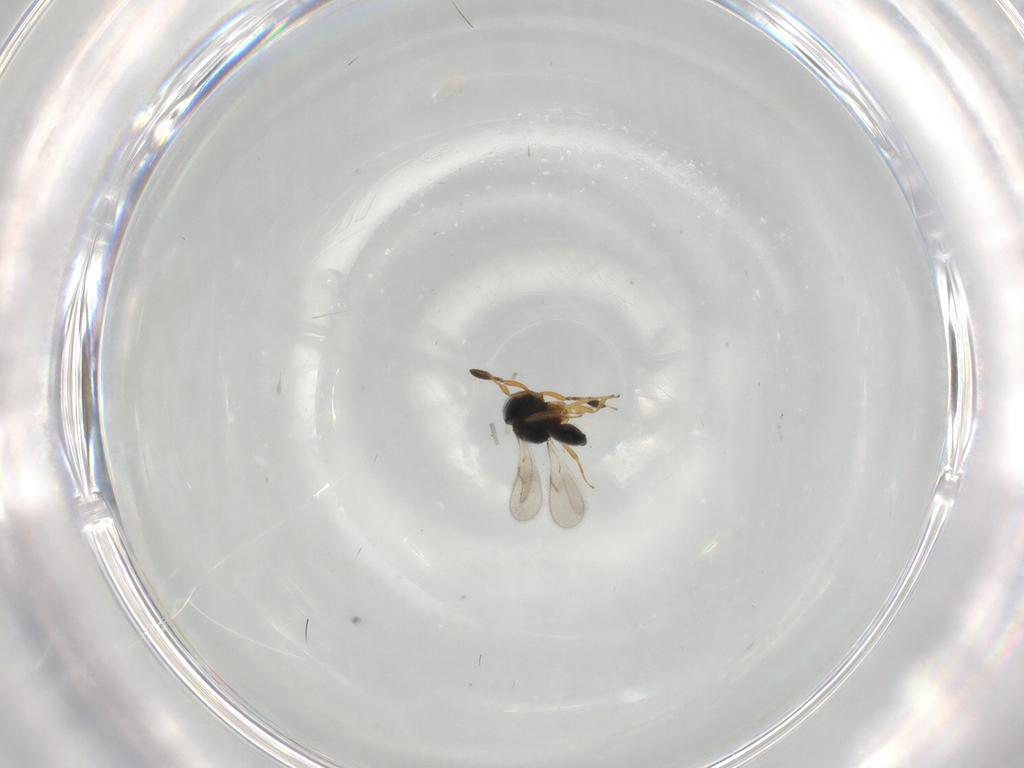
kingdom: Animalia
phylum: Arthropoda
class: Insecta
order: Hymenoptera
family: Scelionidae
